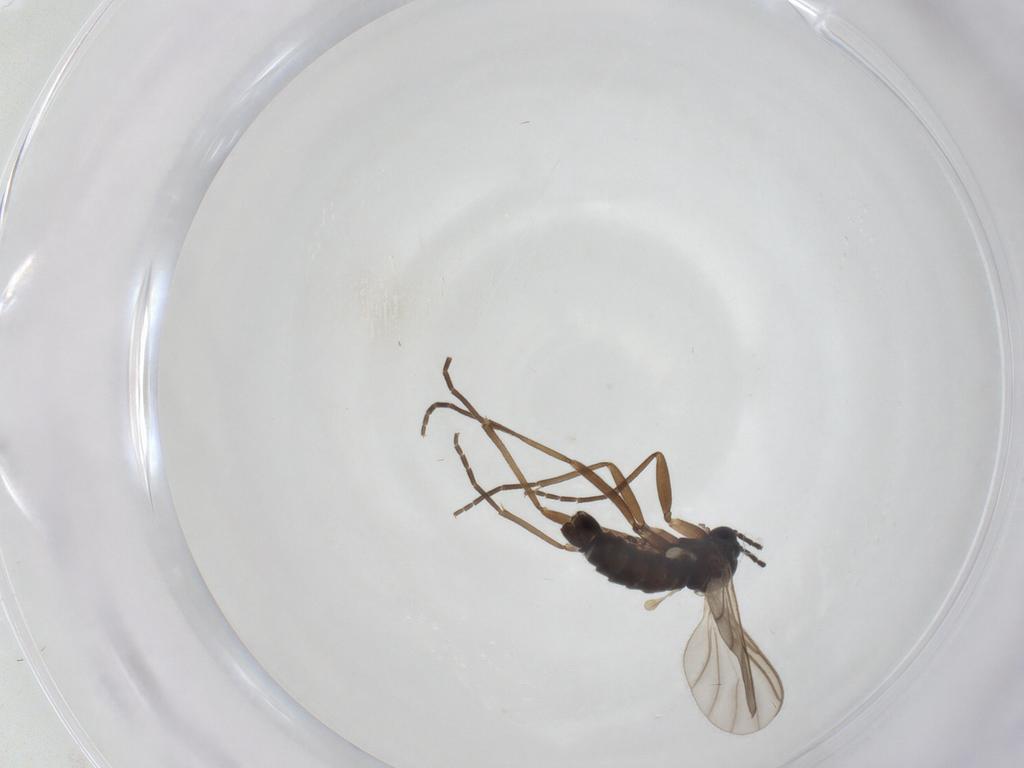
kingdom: Animalia
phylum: Arthropoda
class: Insecta
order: Diptera
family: Sciaridae
